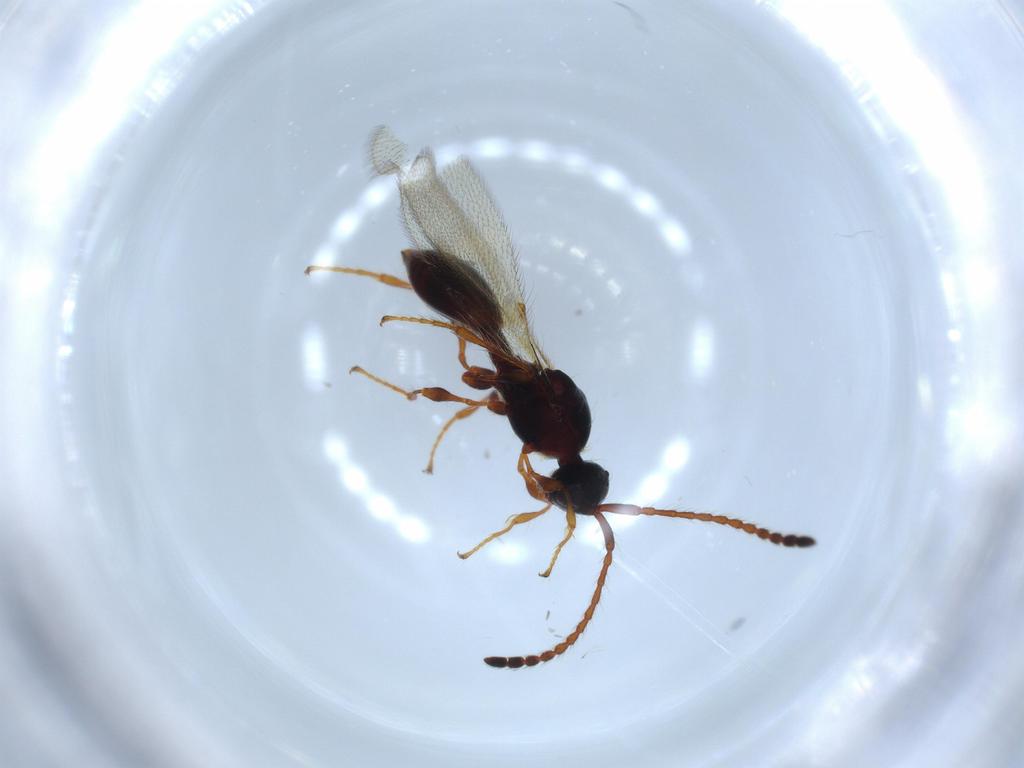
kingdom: Animalia
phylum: Arthropoda
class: Insecta
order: Hymenoptera
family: Diapriidae
